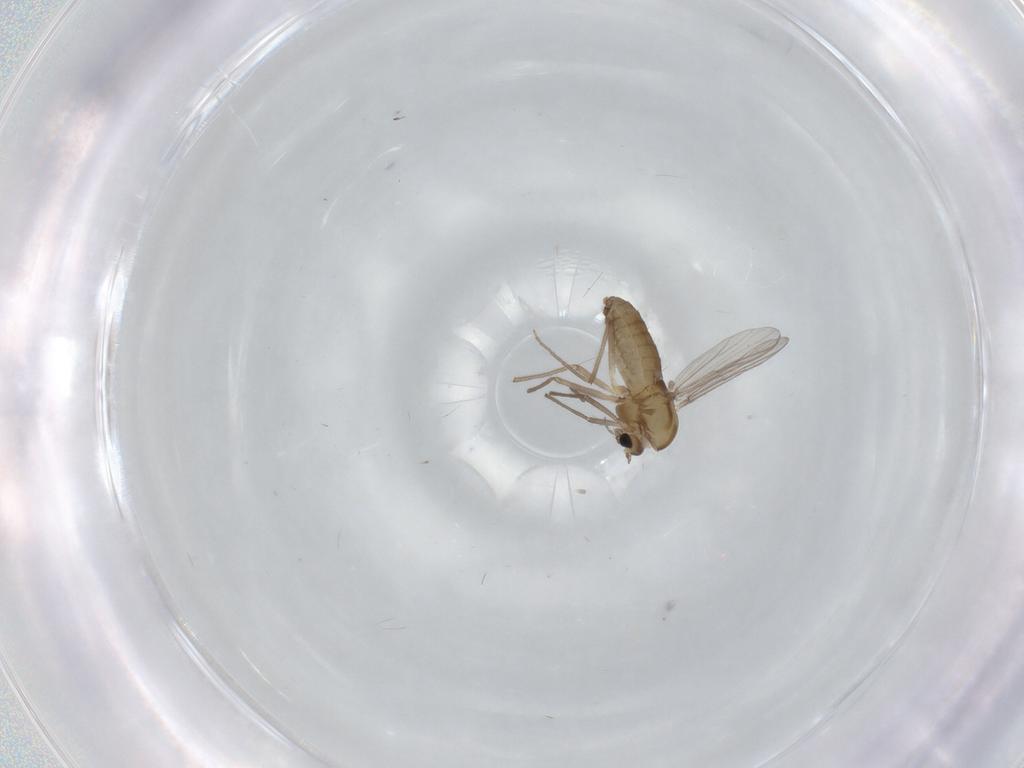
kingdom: Animalia
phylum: Arthropoda
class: Insecta
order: Diptera
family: Chironomidae
